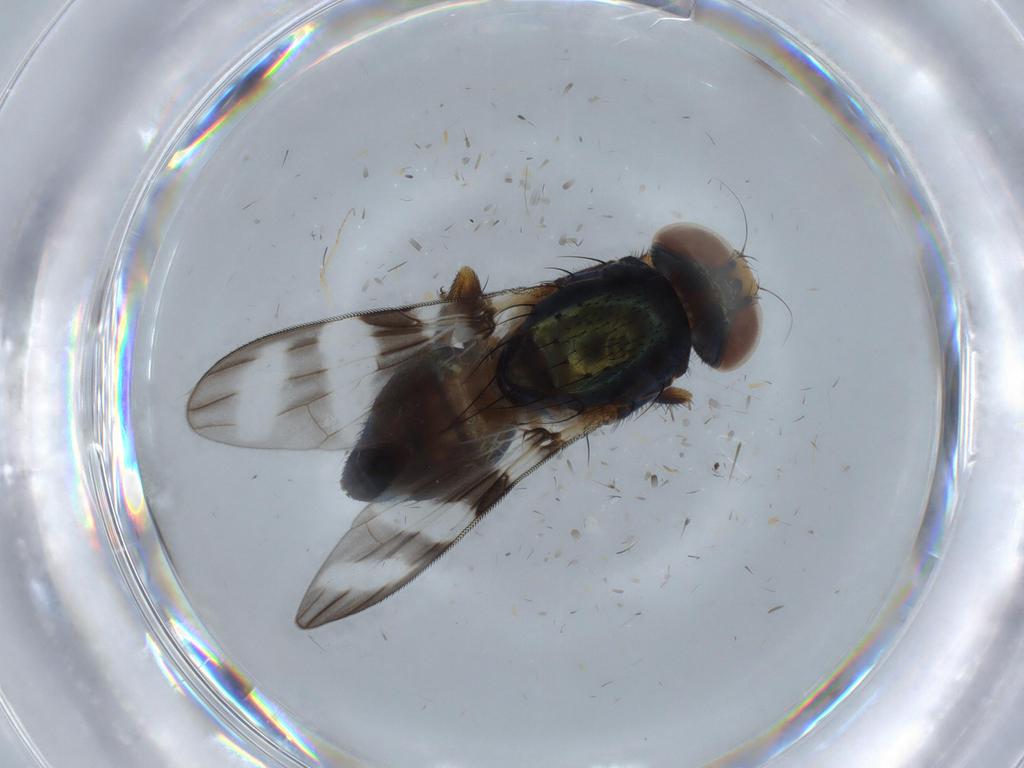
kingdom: Animalia
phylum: Arthropoda
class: Insecta
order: Diptera
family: Ulidiidae
